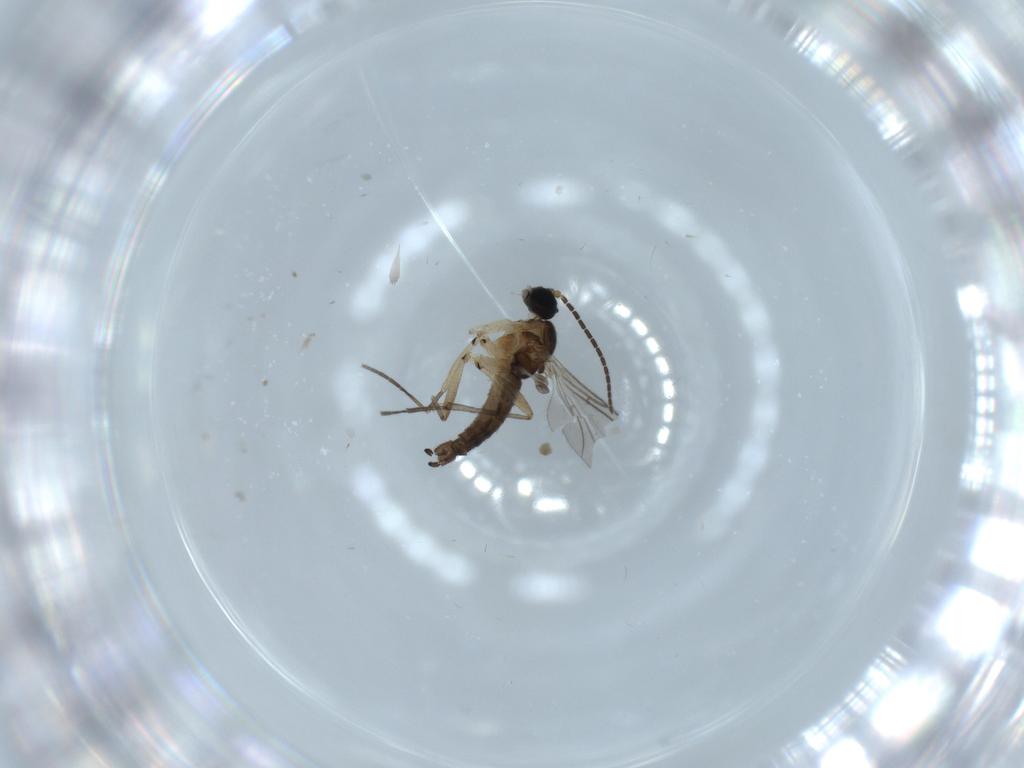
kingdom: Animalia
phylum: Arthropoda
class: Insecta
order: Diptera
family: Sciaridae
